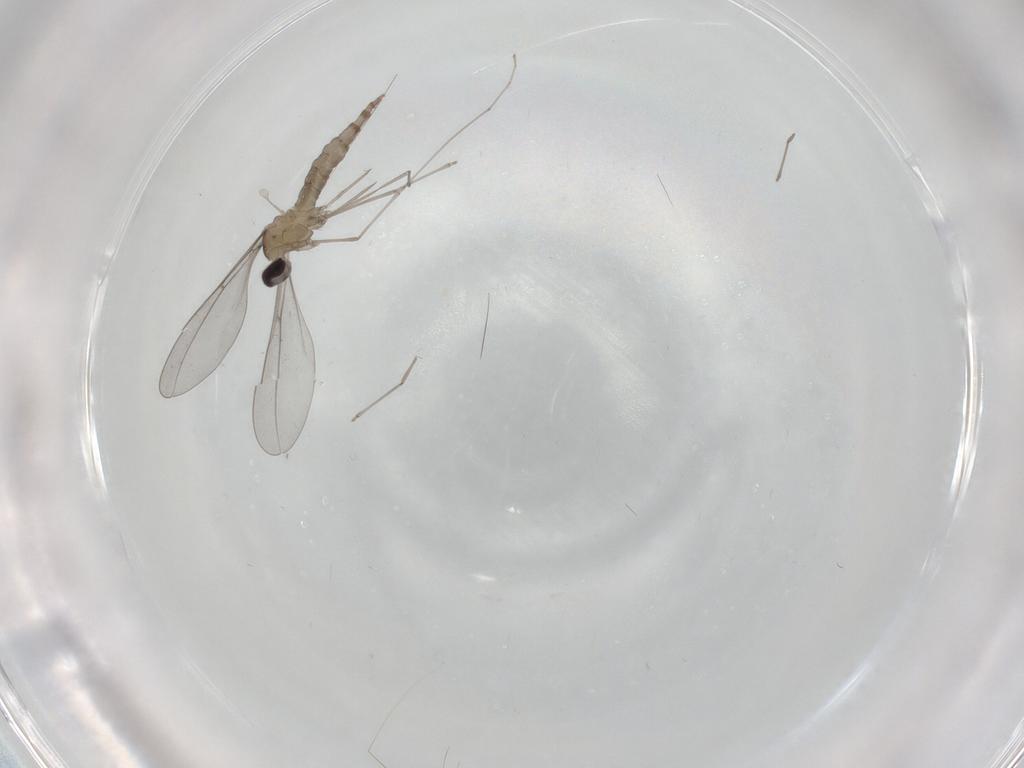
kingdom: Animalia
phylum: Arthropoda
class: Insecta
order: Diptera
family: Cecidomyiidae
